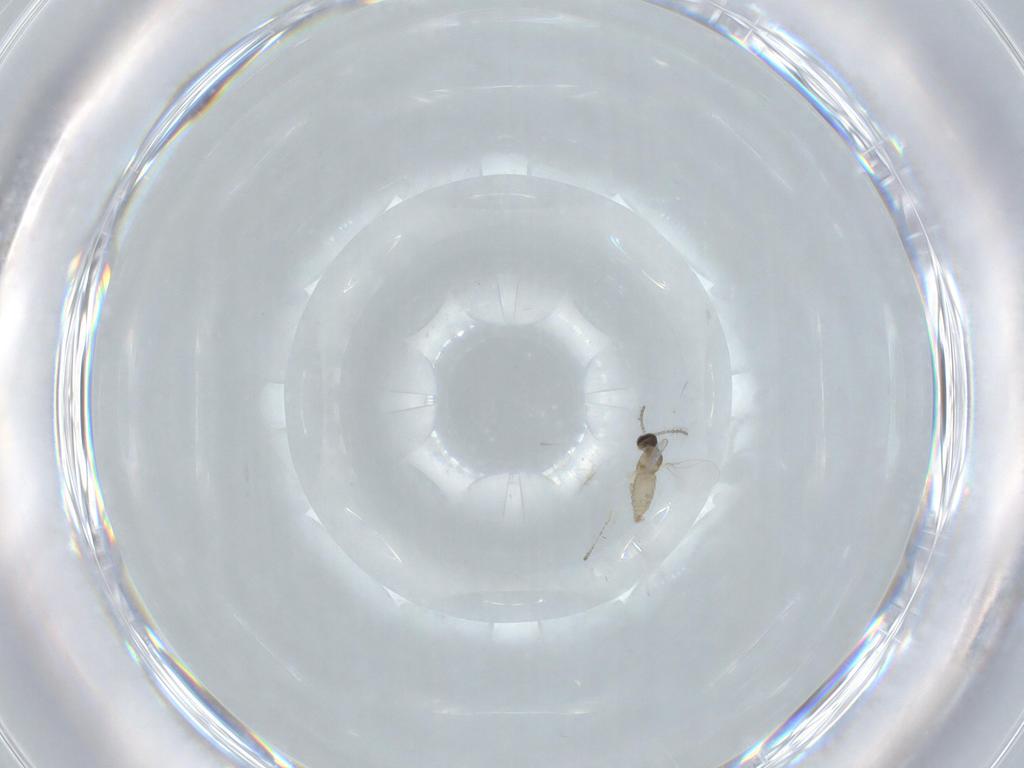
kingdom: Animalia
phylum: Arthropoda
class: Insecta
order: Diptera
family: Cecidomyiidae
